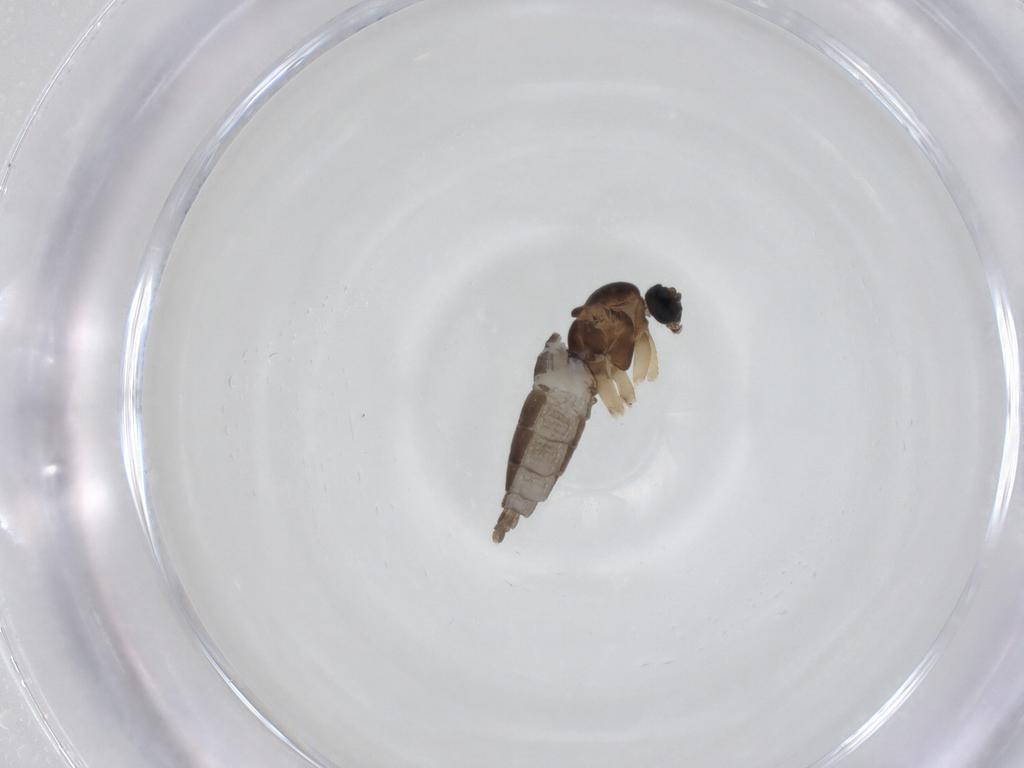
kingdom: Animalia
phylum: Arthropoda
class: Insecta
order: Diptera
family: Sciaridae
